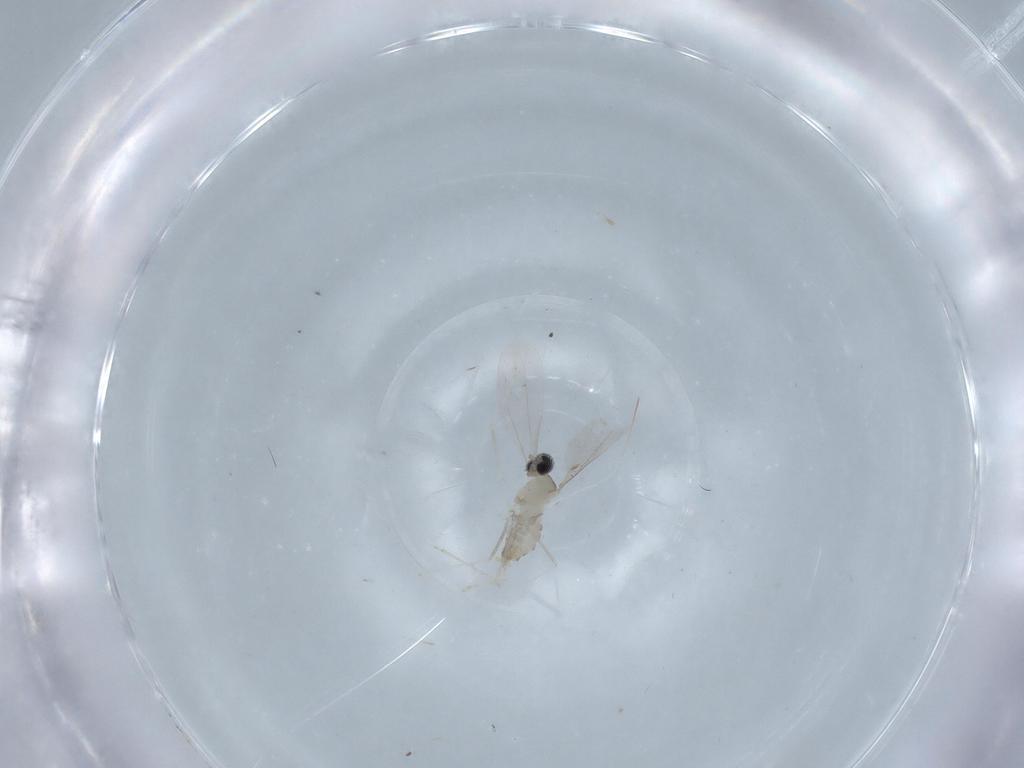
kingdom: Animalia
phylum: Arthropoda
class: Insecta
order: Diptera
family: Cecidomyiidae
